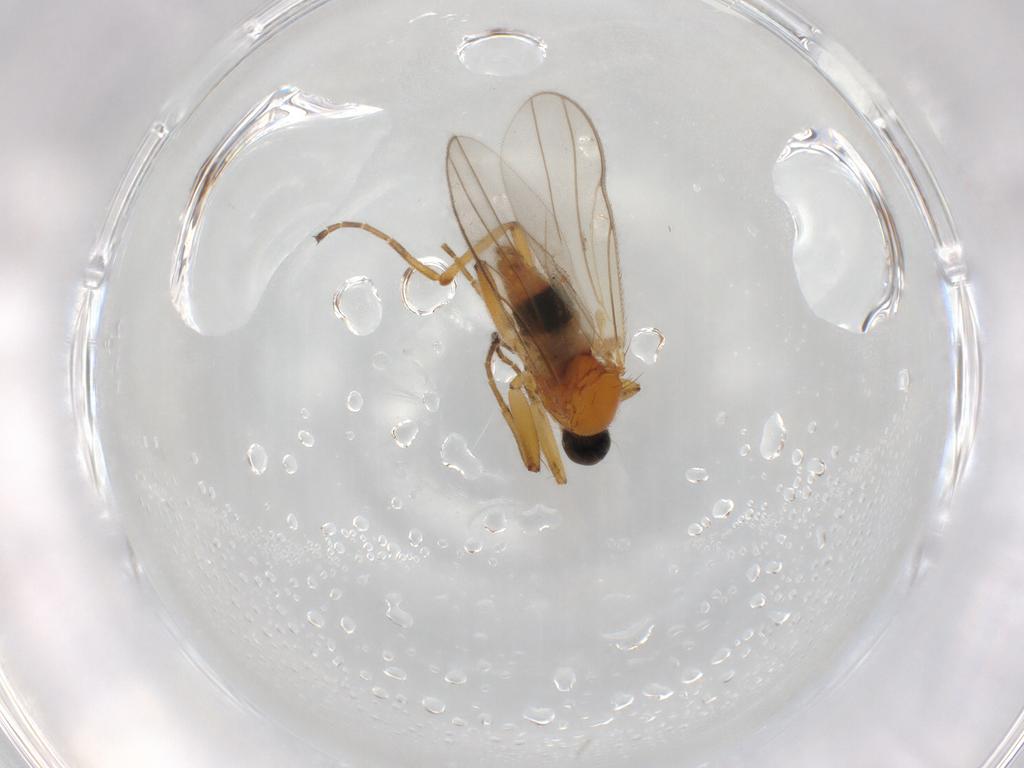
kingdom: Animalia
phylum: Arthropoda
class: Insecta
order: Diptera
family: Hybotidae
